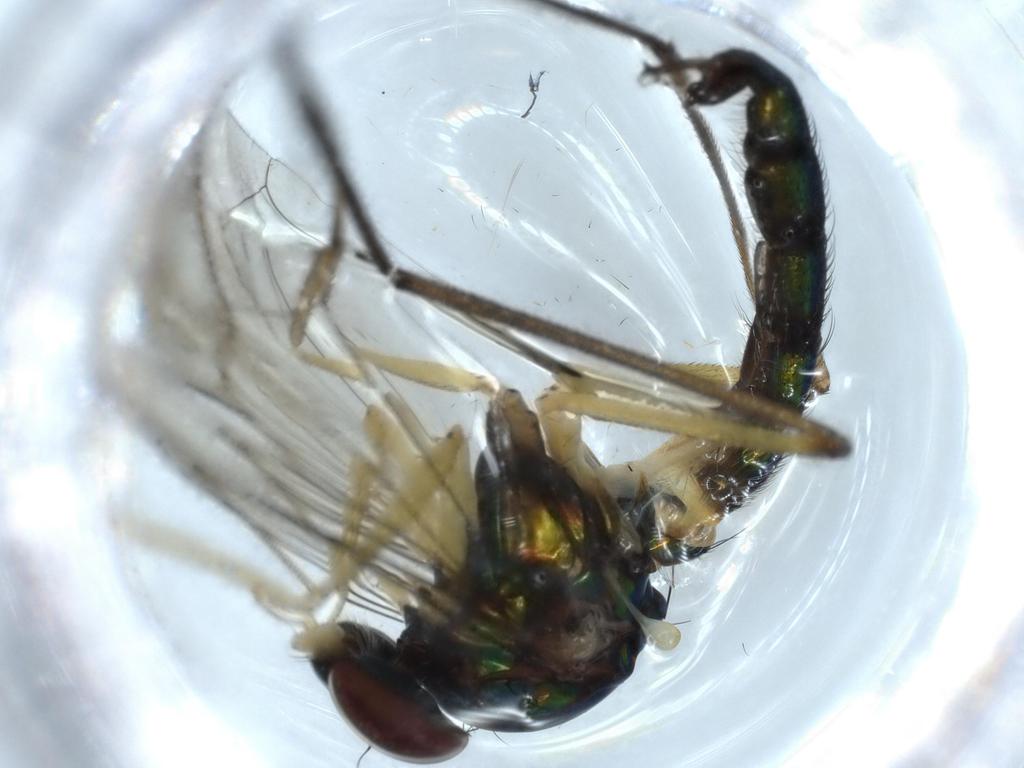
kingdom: Animalia
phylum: Arthropoda
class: Insecta
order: Diptera
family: Dolichopodidae
